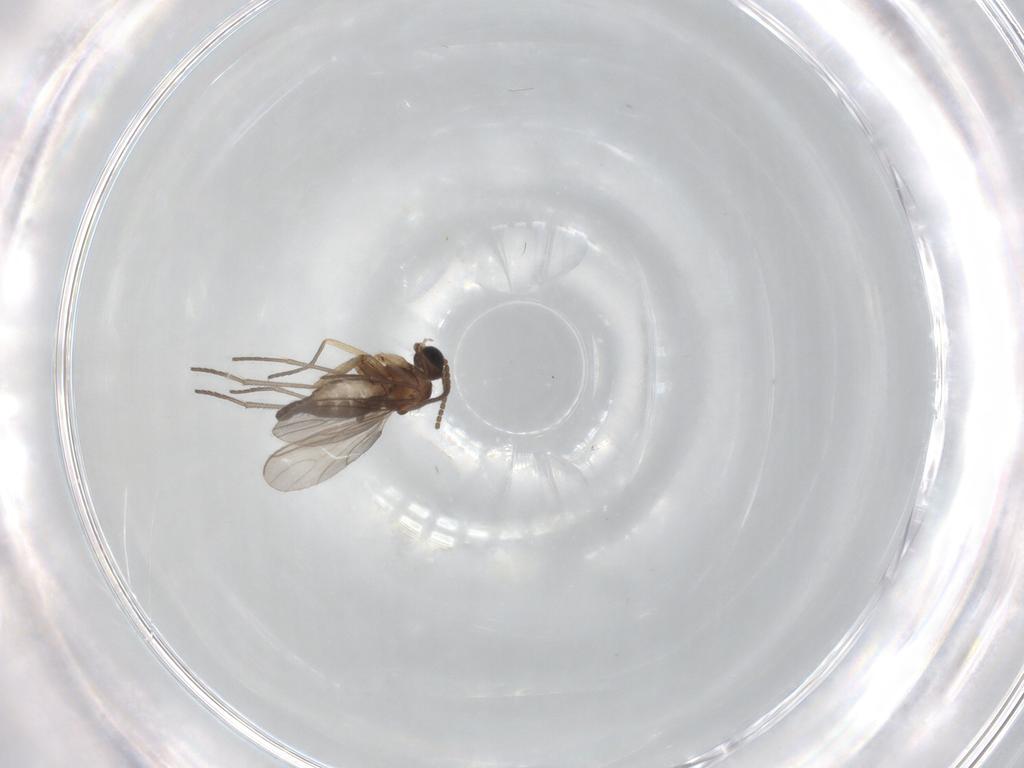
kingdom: Animalia
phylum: Arthropoda
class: Insecta
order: Diptera
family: Sciaridae
